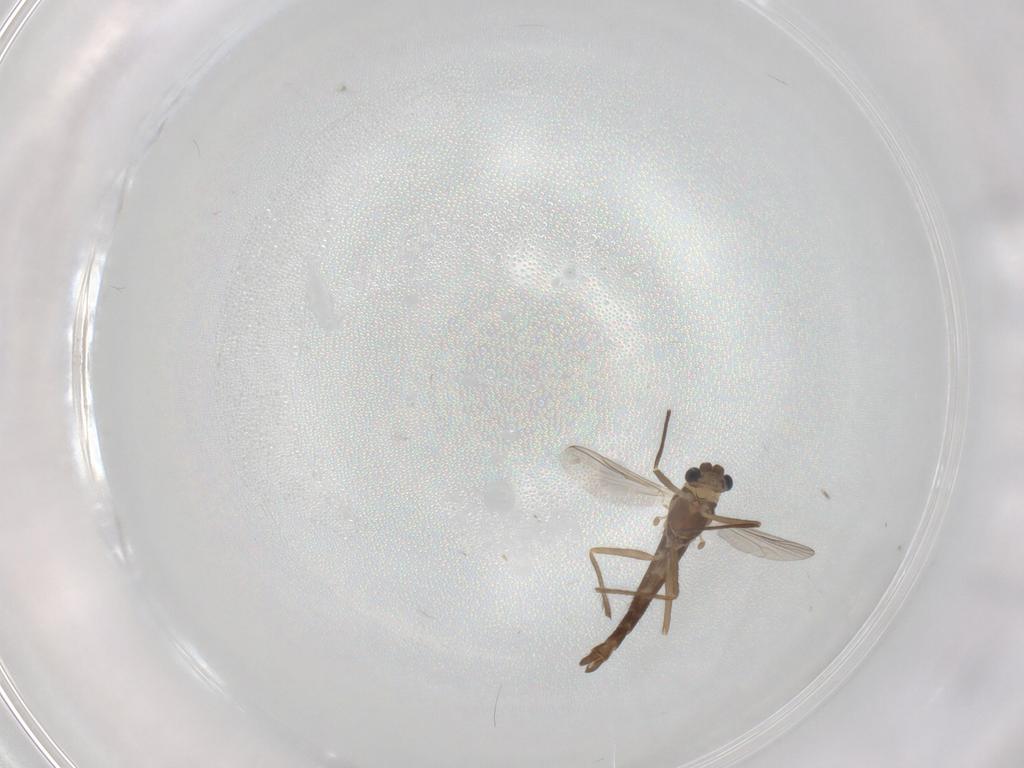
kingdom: Animalia
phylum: Arthropoda
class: Insecta
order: Diptera
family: Chironomidae
